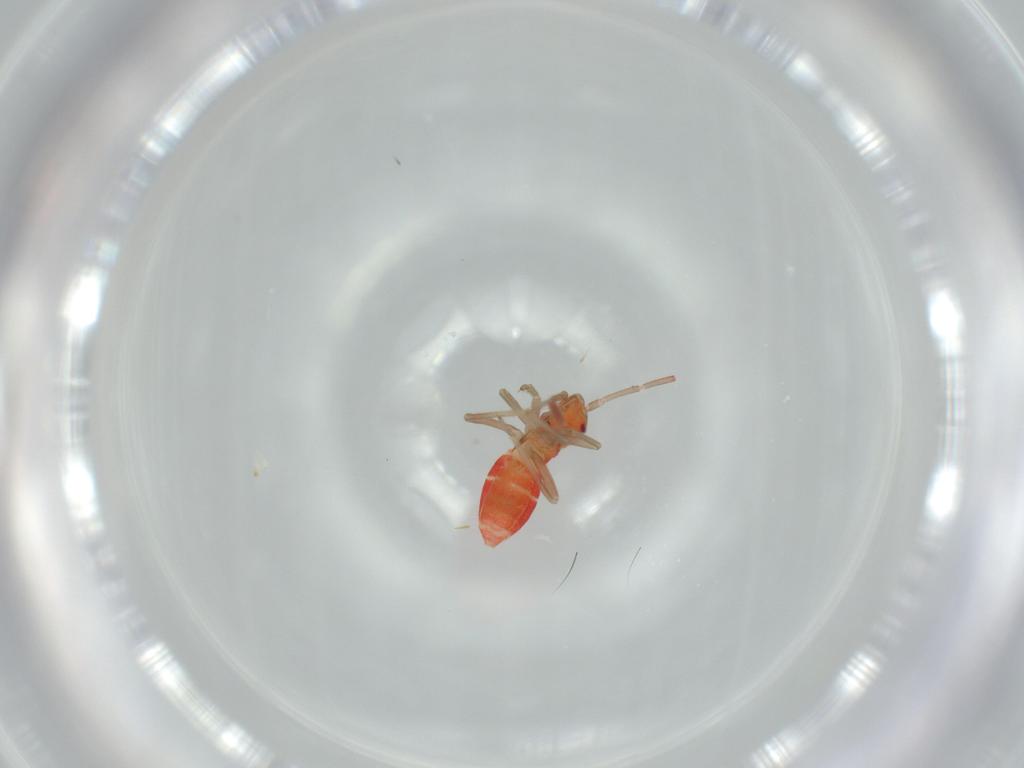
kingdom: Animalia
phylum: Arthropoda
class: Insecta
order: Hemiptera
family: Miridae
